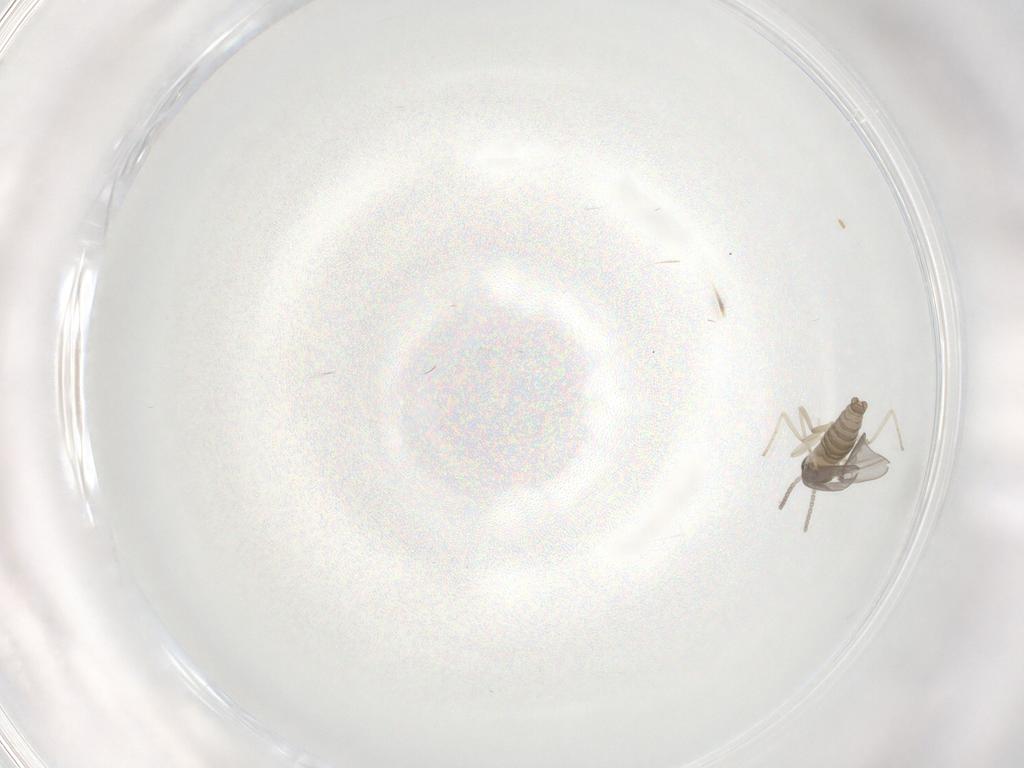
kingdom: Animalia
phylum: Arthropoda
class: Insecta
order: Diptera
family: Cecidomyiidae
